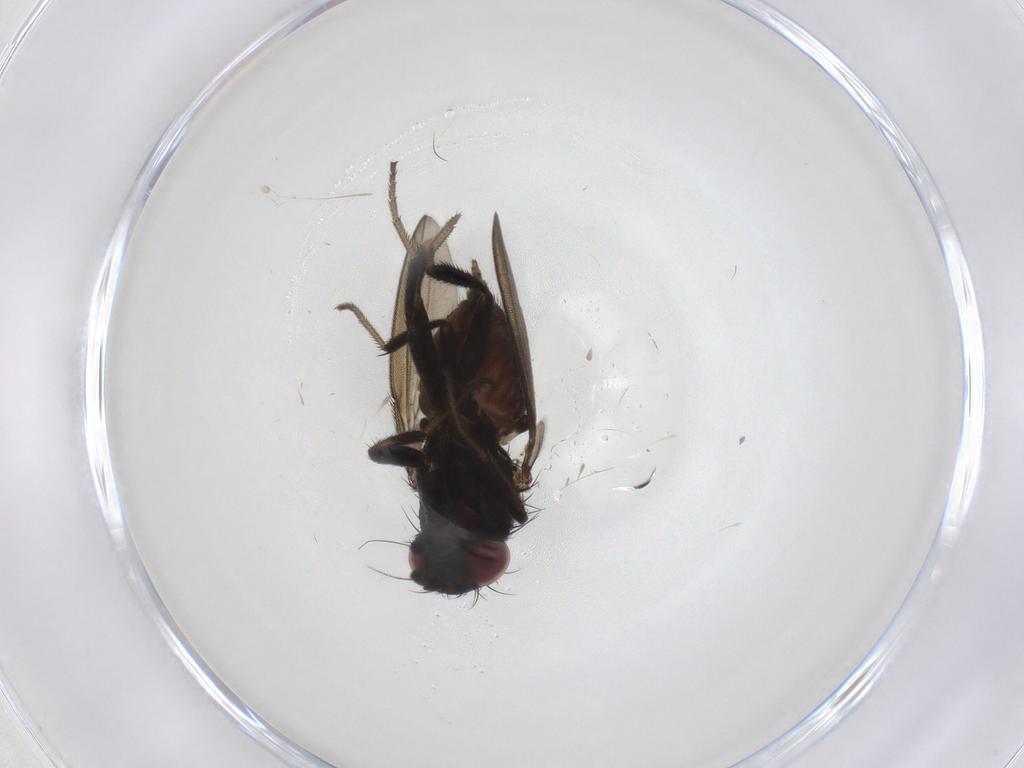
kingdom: Animalia
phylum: Arthropoda
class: Insecta
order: Diptera
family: Milichiidae
